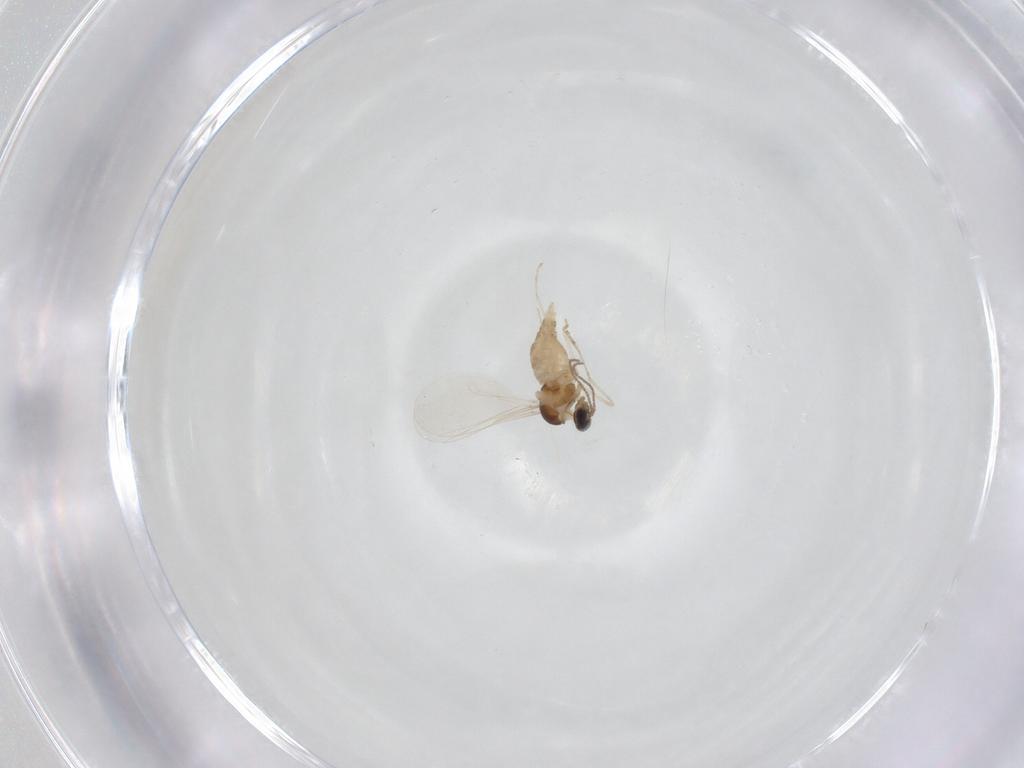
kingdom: Animalia
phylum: Arthropoda
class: Insecta
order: Diptera
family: Cecidomyiidae
